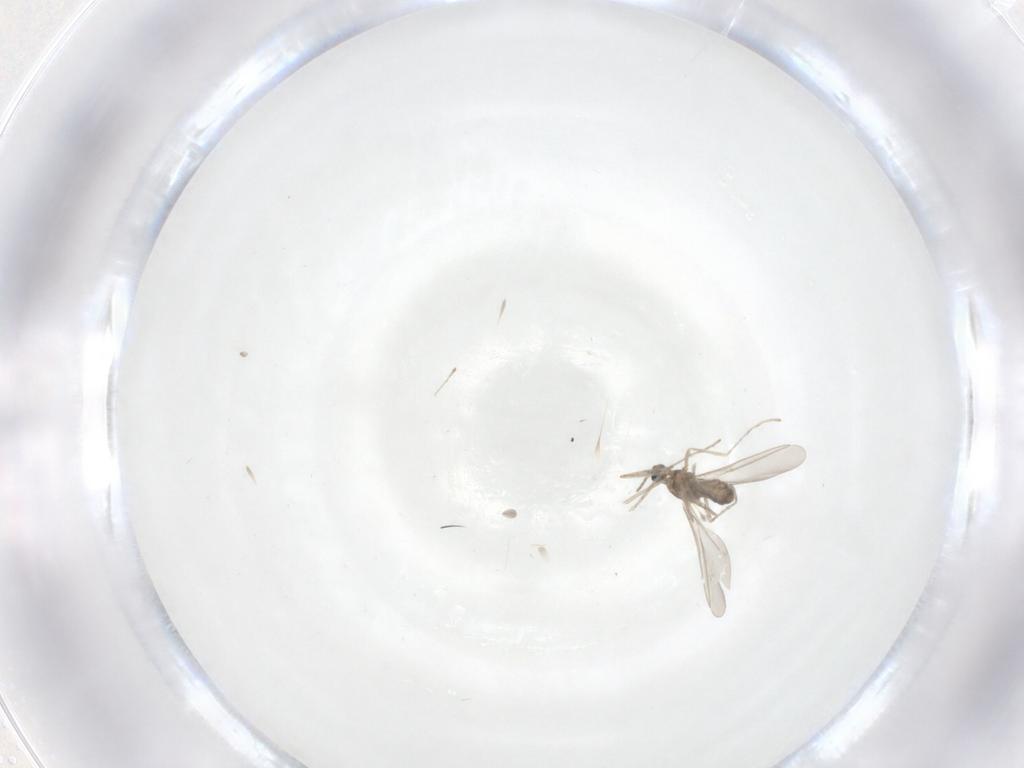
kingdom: Animalia
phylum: Arthropoda
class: Insecta
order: Diptera
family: Cecidomyiidae
